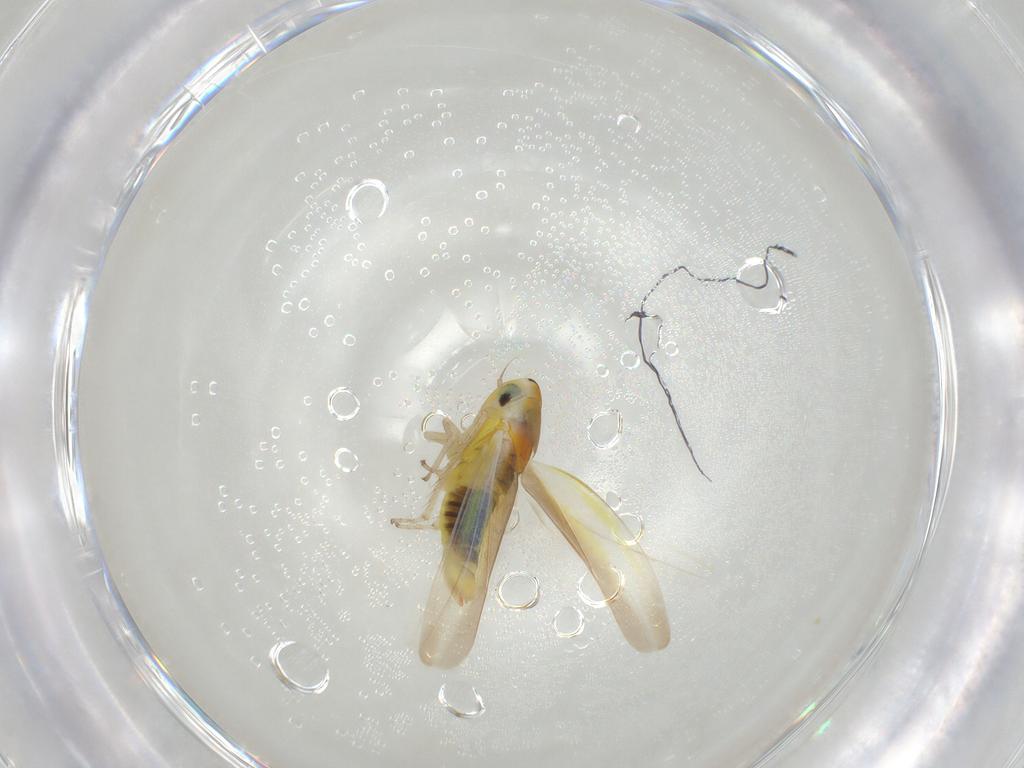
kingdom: Animalia
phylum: Arthropoda
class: Insecta
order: Hemiptera
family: Cicadellidae
